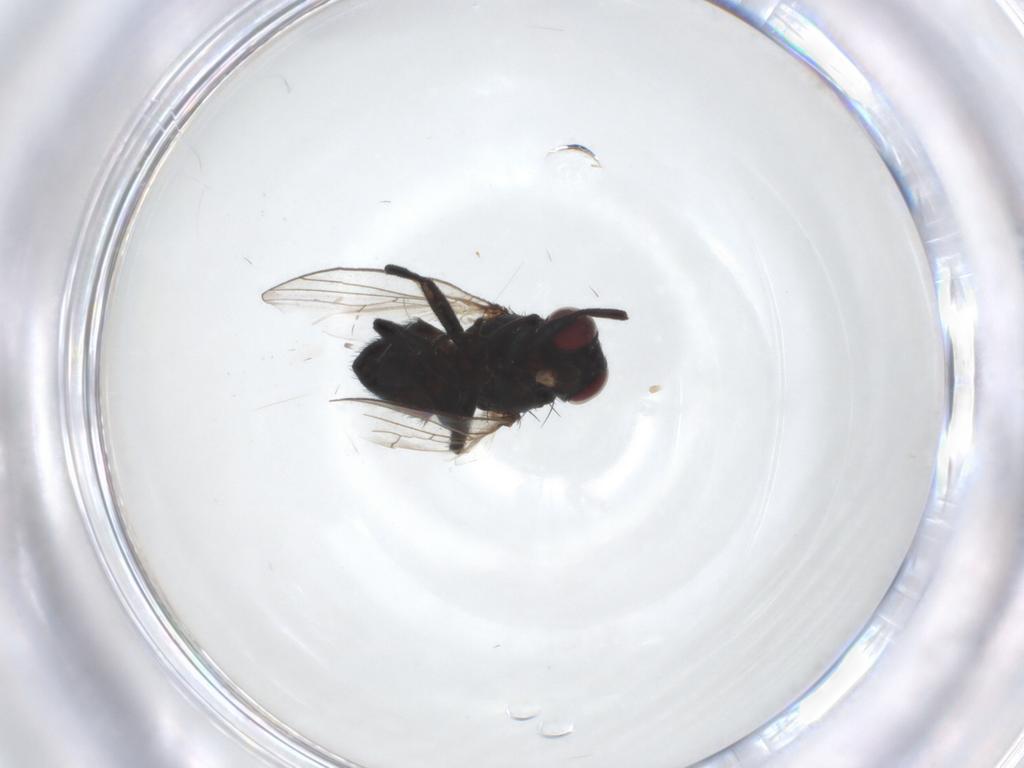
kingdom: Animalia
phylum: Arthropoda
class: Insecta
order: Diptera
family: Agromyzidae
